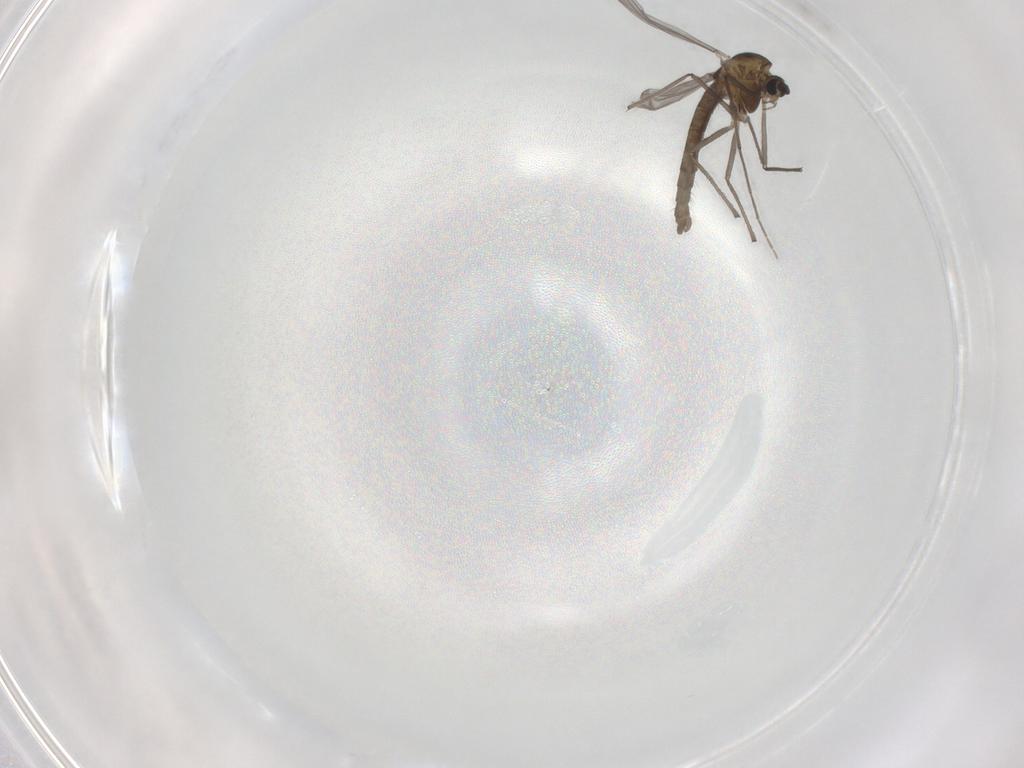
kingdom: Animalia
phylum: Arthropoda
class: Insecta
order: Diptera
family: Chironomidae
